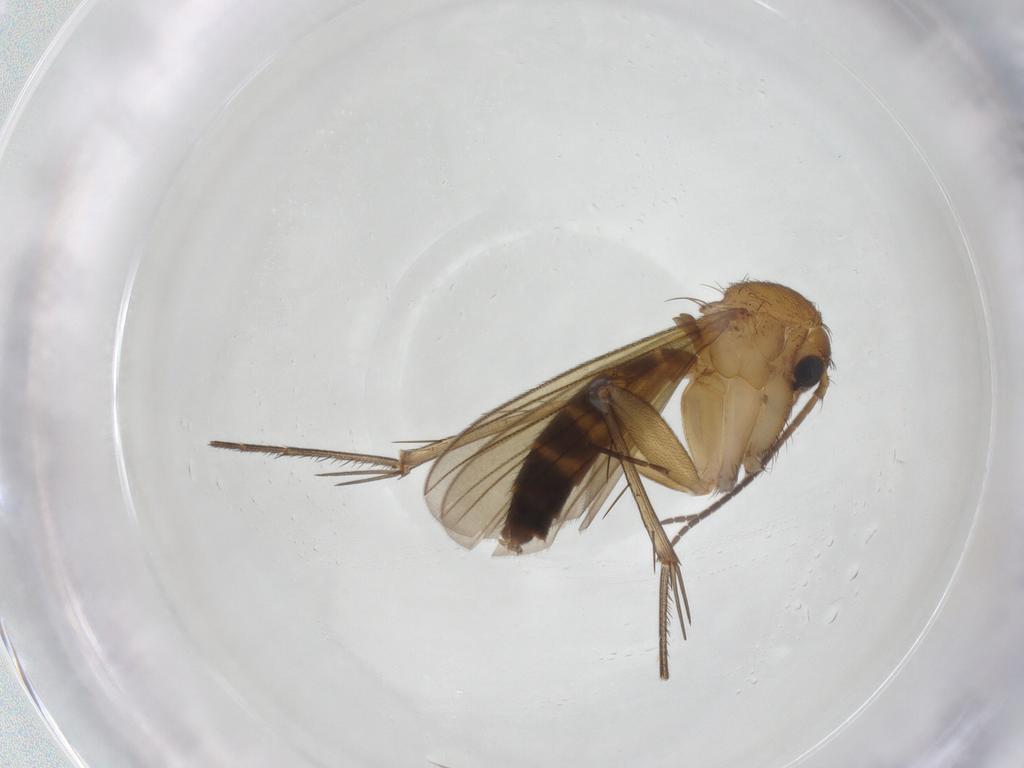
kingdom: Animalia
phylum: Arthropoda
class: Insecta
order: Diptera
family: Mycetophilidae
